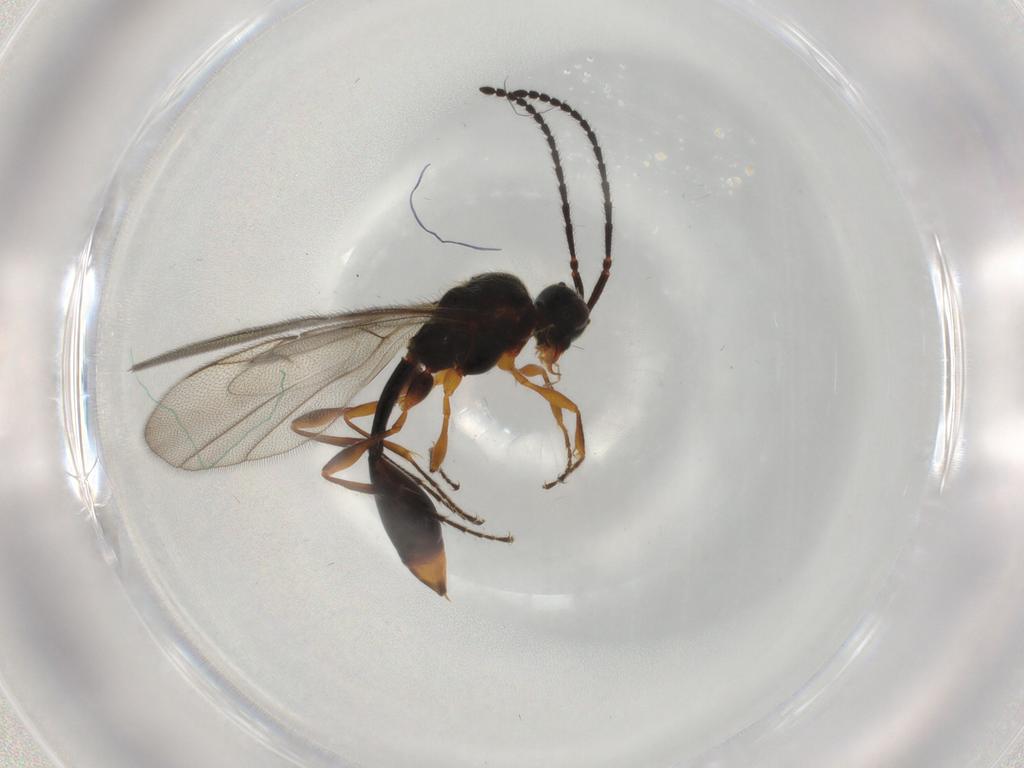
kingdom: Animalia
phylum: Arthropoda
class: Insecta
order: Hymenoptera
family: Diapriidae
